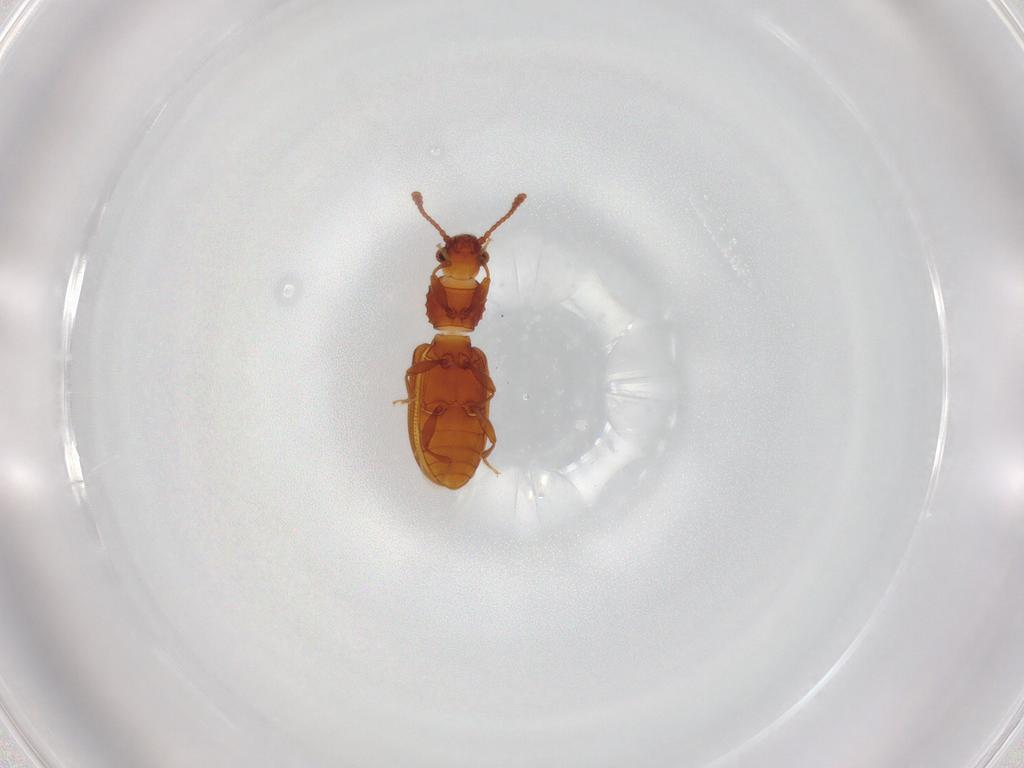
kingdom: Animalia
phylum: Arthropoda
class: Insecta
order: Coleoptera
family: Silvanidae
